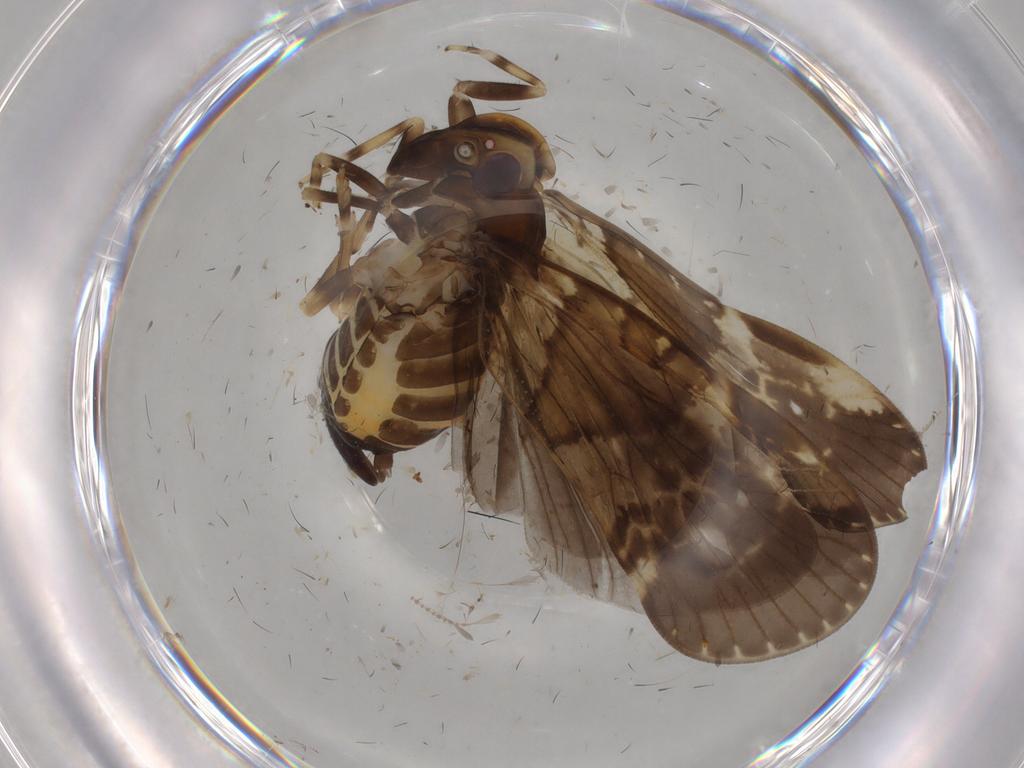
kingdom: Animalia
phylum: Arthropoda
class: Insecta
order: Hemiptera
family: Cixiidae
